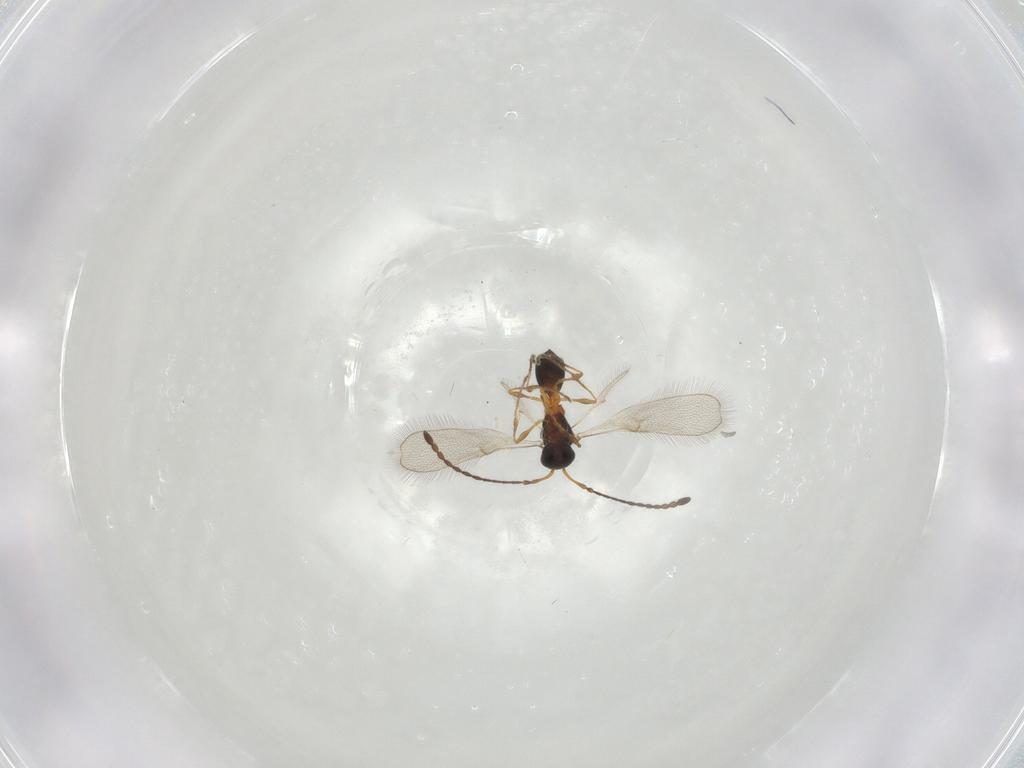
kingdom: Animalia
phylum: Arthropoda
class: Insecta
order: Hymenoptera
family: Diapriidae
